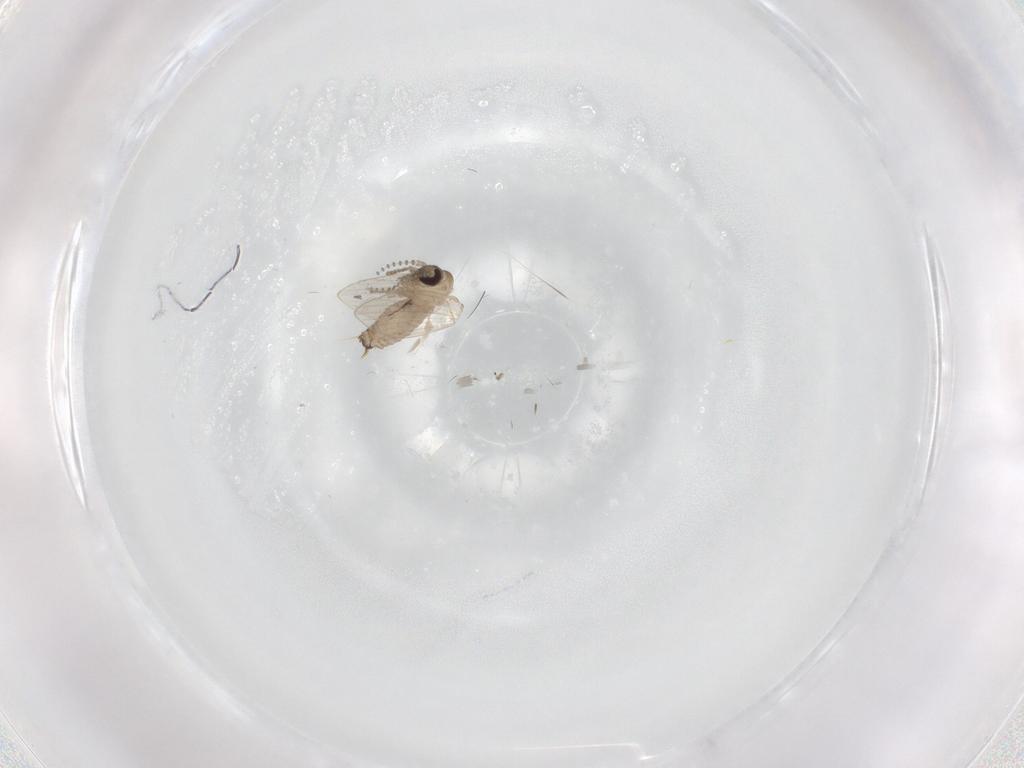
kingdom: Animalia
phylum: Arthropoda
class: Insecta
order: Diptera
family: Psychodidae
